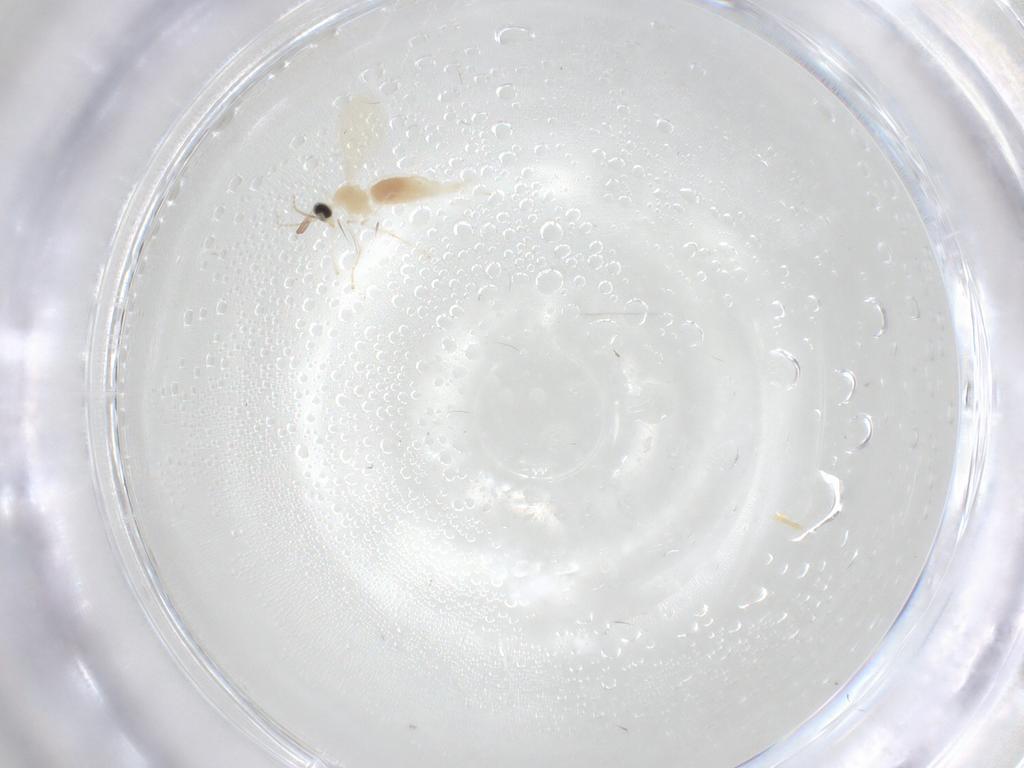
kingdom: Animalia
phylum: Arthropoda
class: Insecta
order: Diptera
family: Cecidomyiidae
